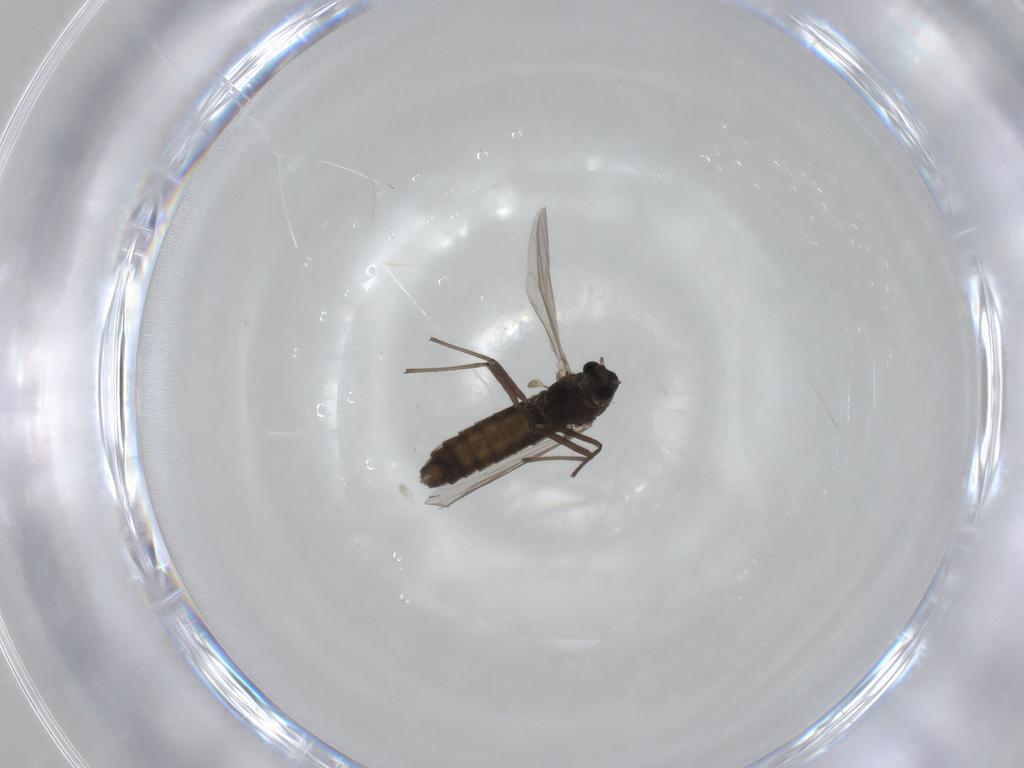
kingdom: Animalia
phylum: Arthropoda
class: Insecta
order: Diptera
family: Chironomidae
